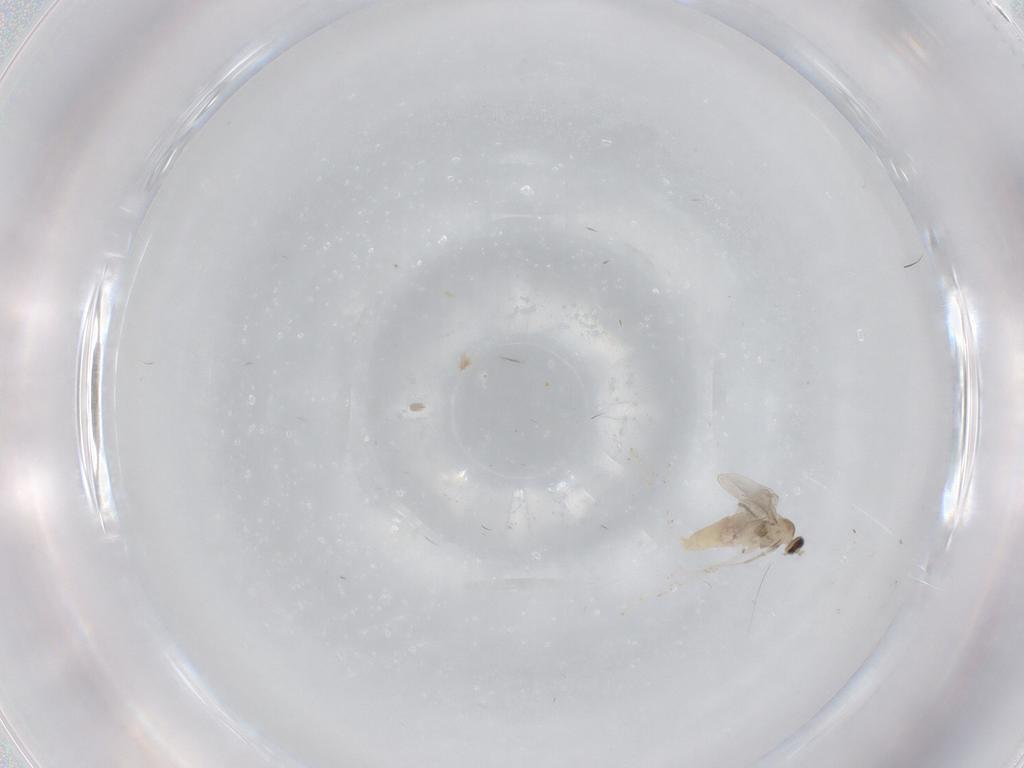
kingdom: Animalia
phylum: Arthropoda
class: Insecta
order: Diptera
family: Cecidomyiidae
